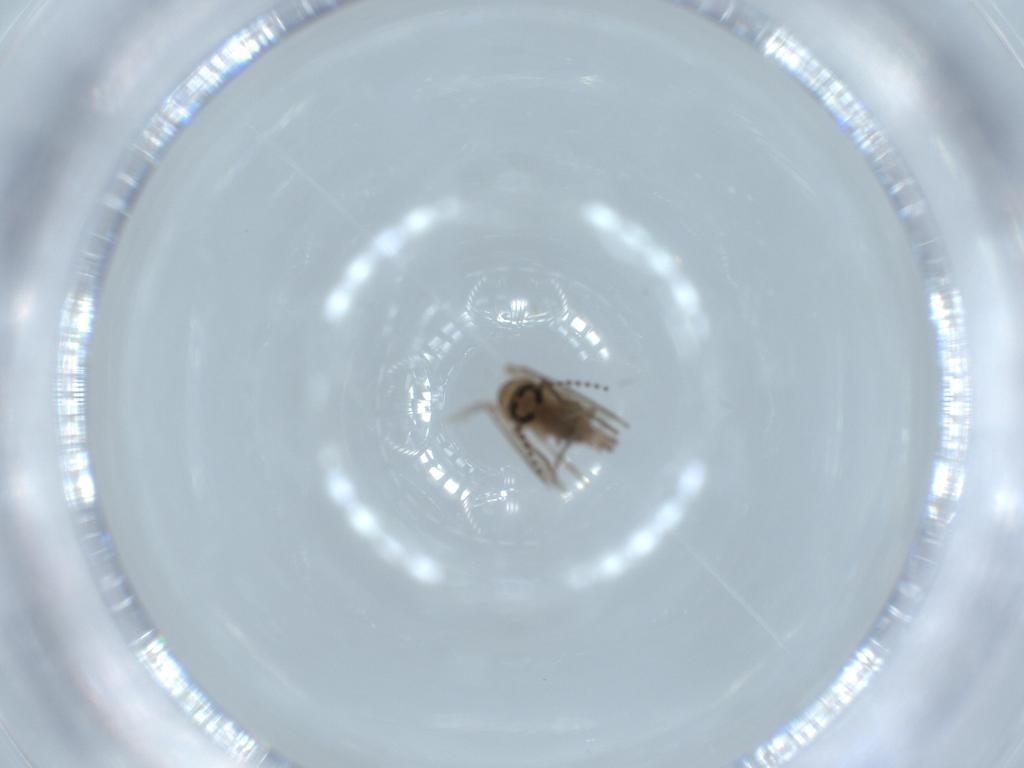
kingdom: Animalia
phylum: Arthropoda
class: Insecta
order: Diptera
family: Psychodidae
